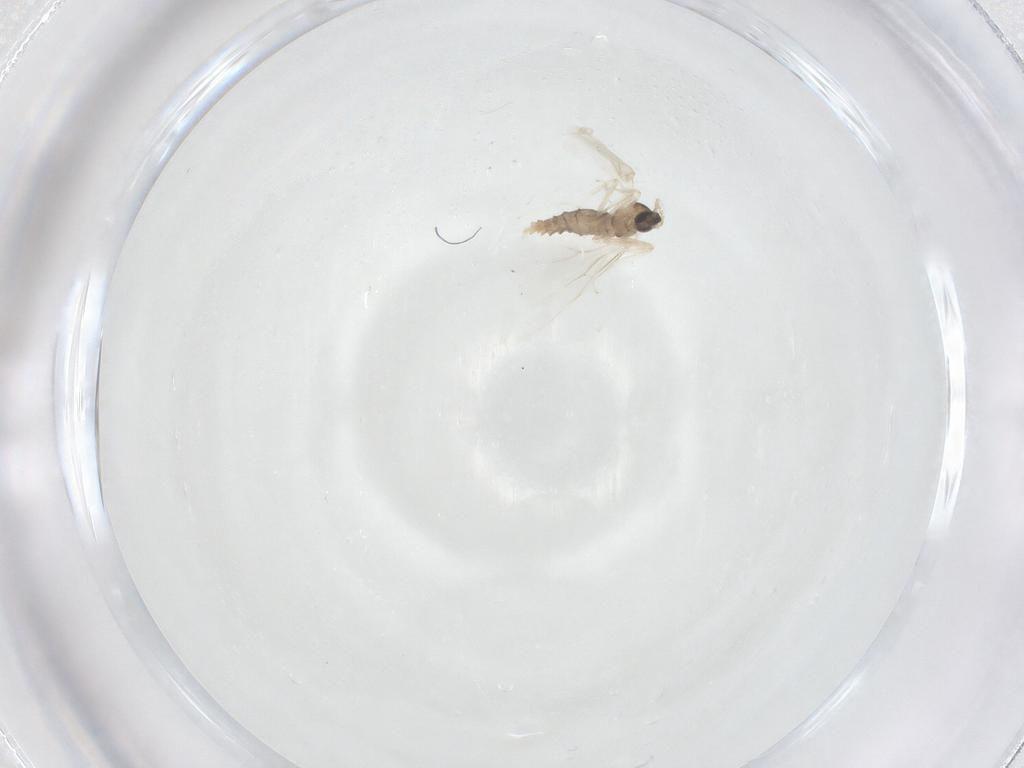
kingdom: Animalia
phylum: Arthropoda
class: Insecta
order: Diptera
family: Cecidomyiidae
